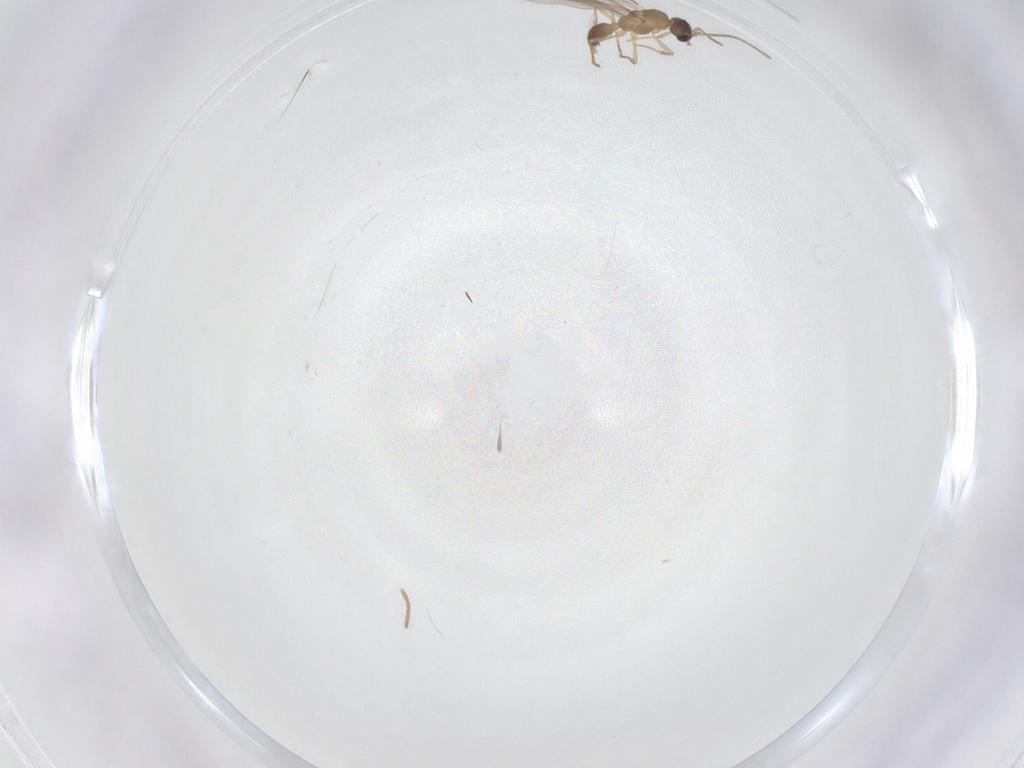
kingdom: Animalia
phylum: Arthropoda
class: Insecta
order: Hymenoptera
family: Formicidae
